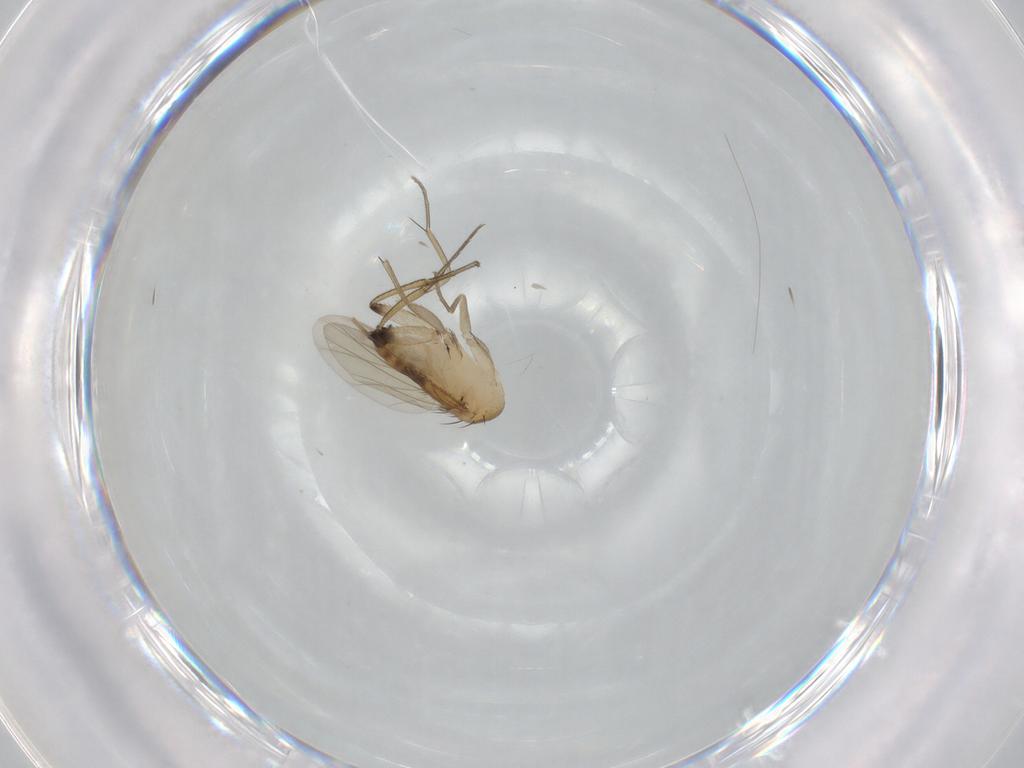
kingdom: Animalia
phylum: Arthropoda
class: Insecta
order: Diptera
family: Phoridae
